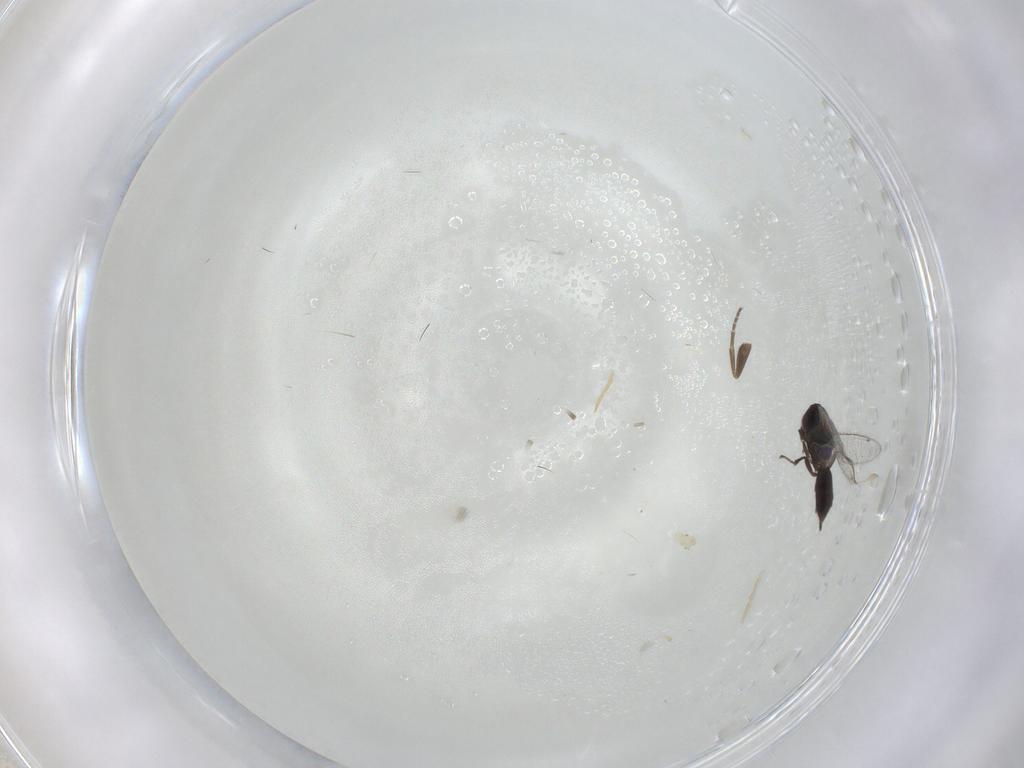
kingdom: Animalia
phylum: Arthropoda
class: Insecta
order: Hymenoptera
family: Pirenidae
